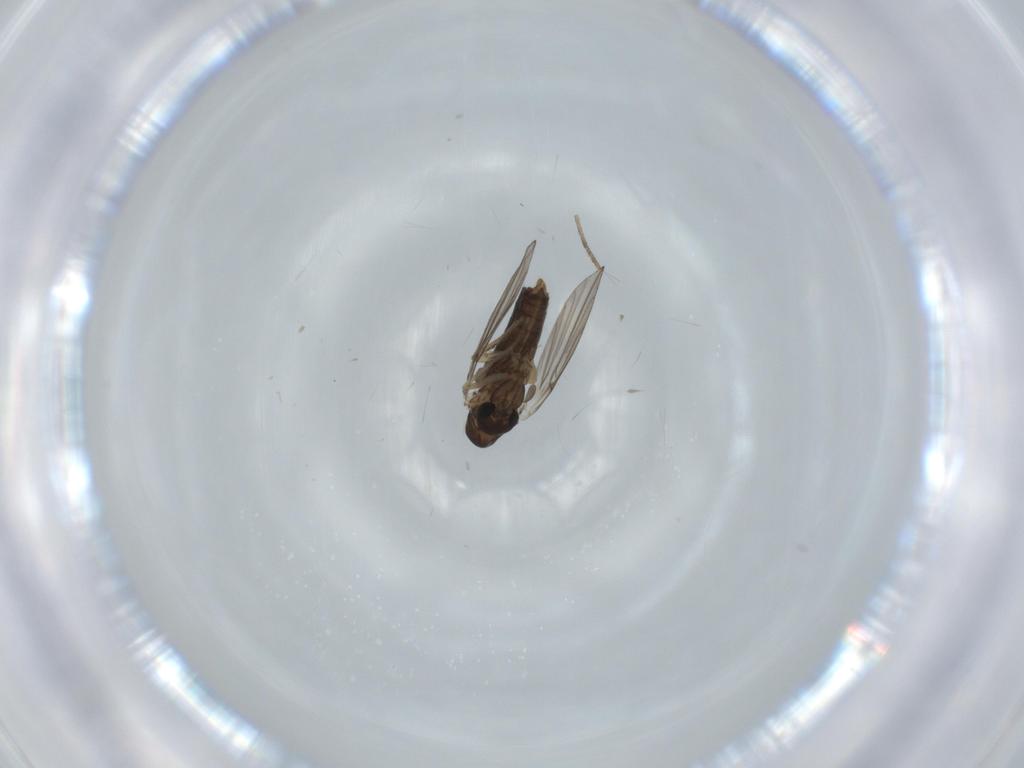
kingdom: Animalia
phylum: Arthropoda
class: Insecta
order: Diptera
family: Psychodidae
